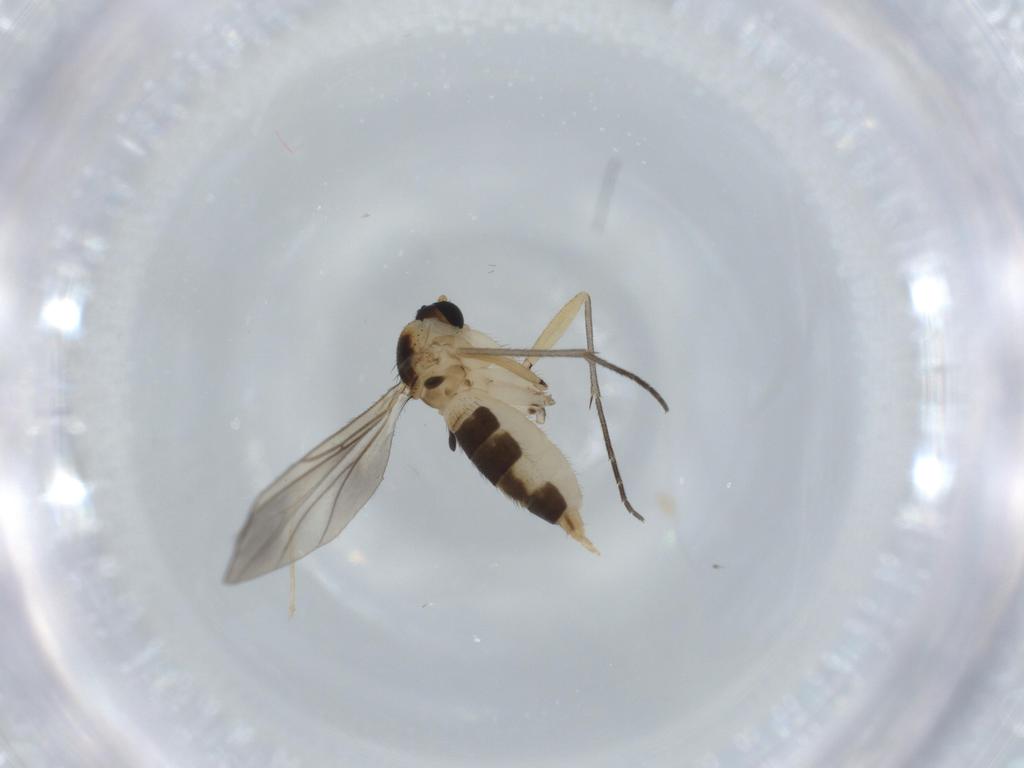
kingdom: Animalia
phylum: Arthropoda
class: Insecta
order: Diptera
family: Sciaridae
